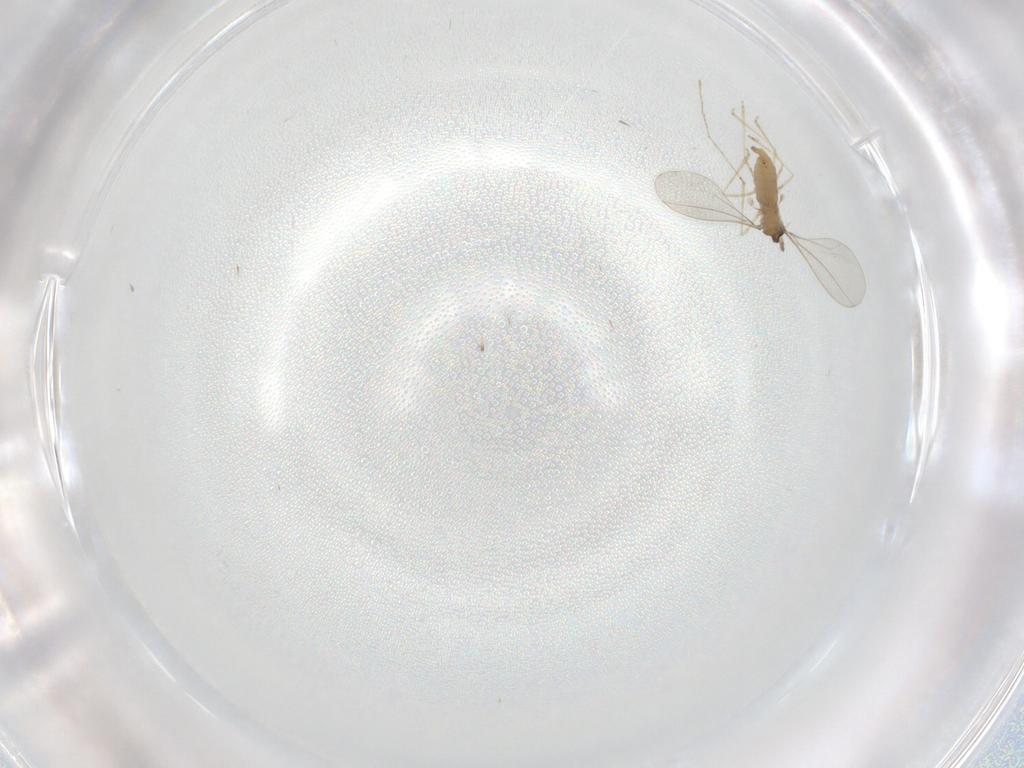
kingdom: Animalia
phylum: Arthropoda
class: Insecta
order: Diptera
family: Cecidomyiidae
